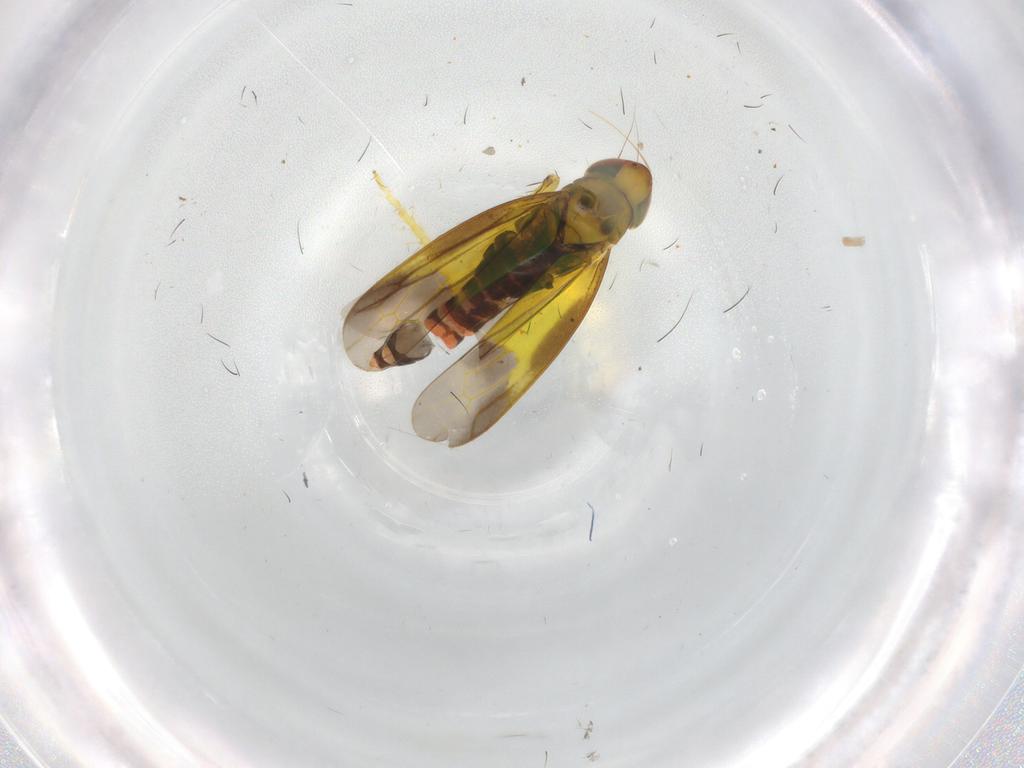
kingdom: Animalia
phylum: Arthropoda
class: Insecta
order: Hemiptera
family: Cicadellidae
